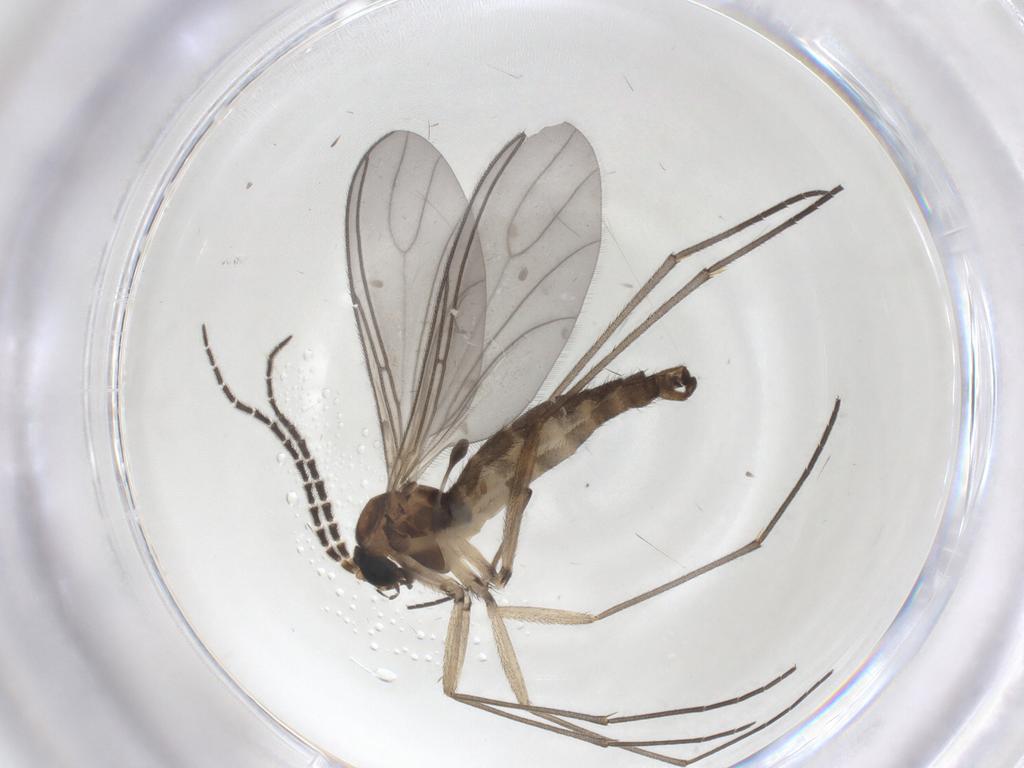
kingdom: Animalia
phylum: Arthropoda
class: Insecta
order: Diptera
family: Sciaridae
